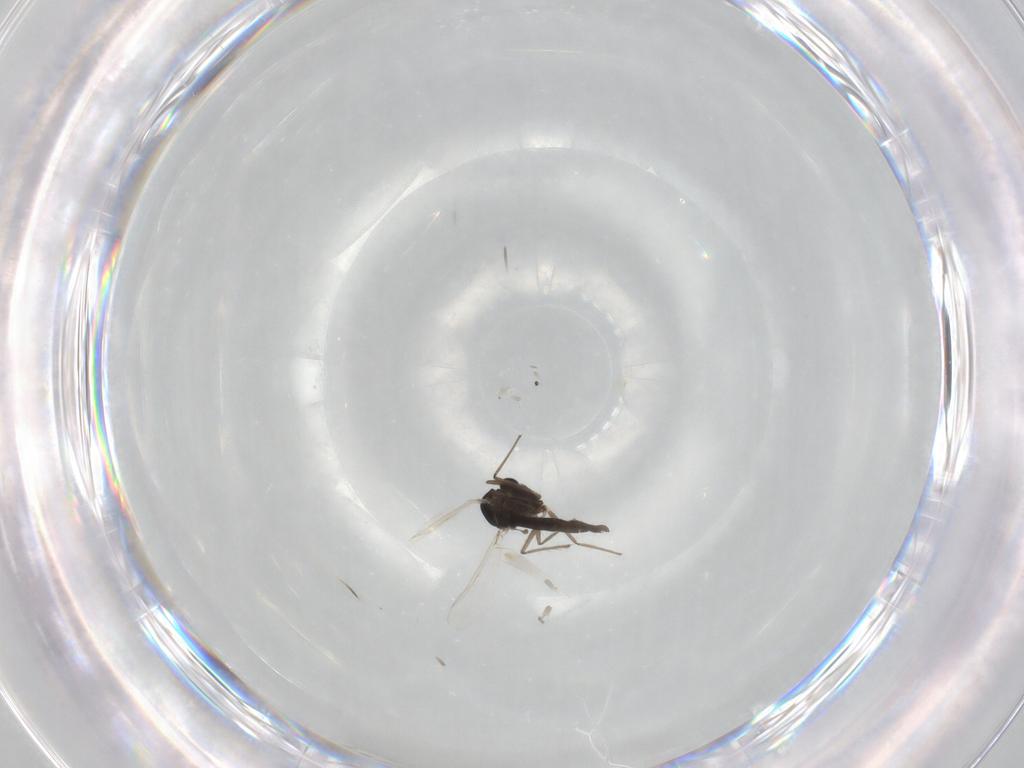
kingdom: Animalia
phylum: Arthropoda
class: Insecta
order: Diptera
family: Chironomidae
